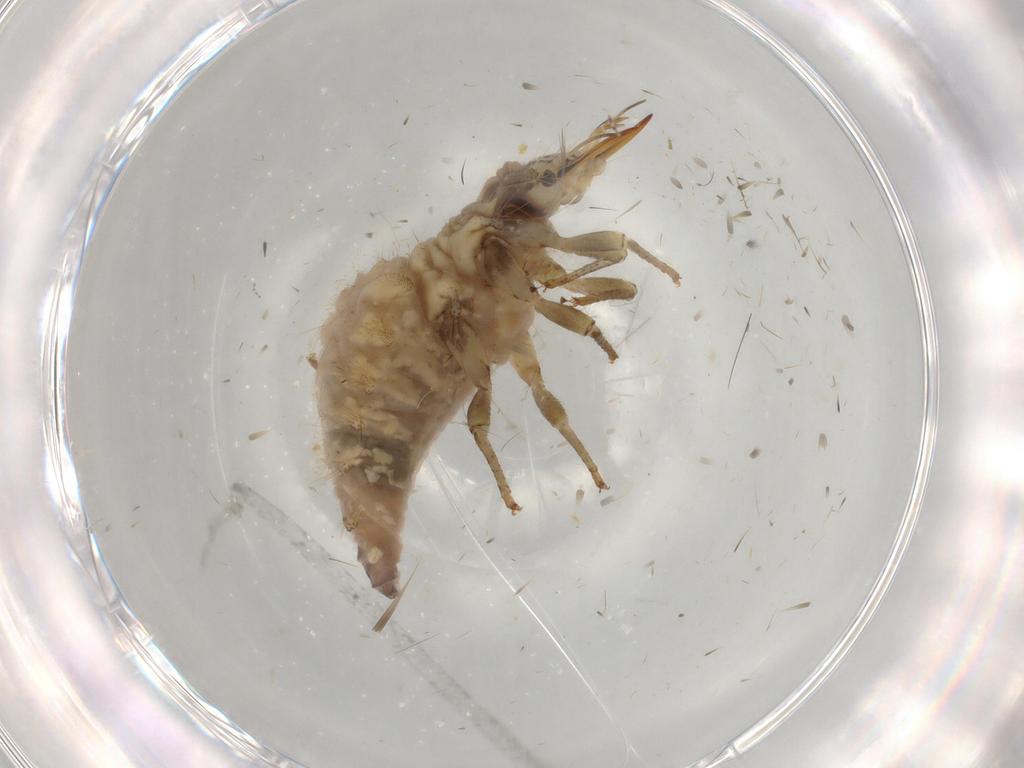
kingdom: Animalia
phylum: Arthropoda
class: Insecta
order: Neuroptera
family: Chrysopidae
